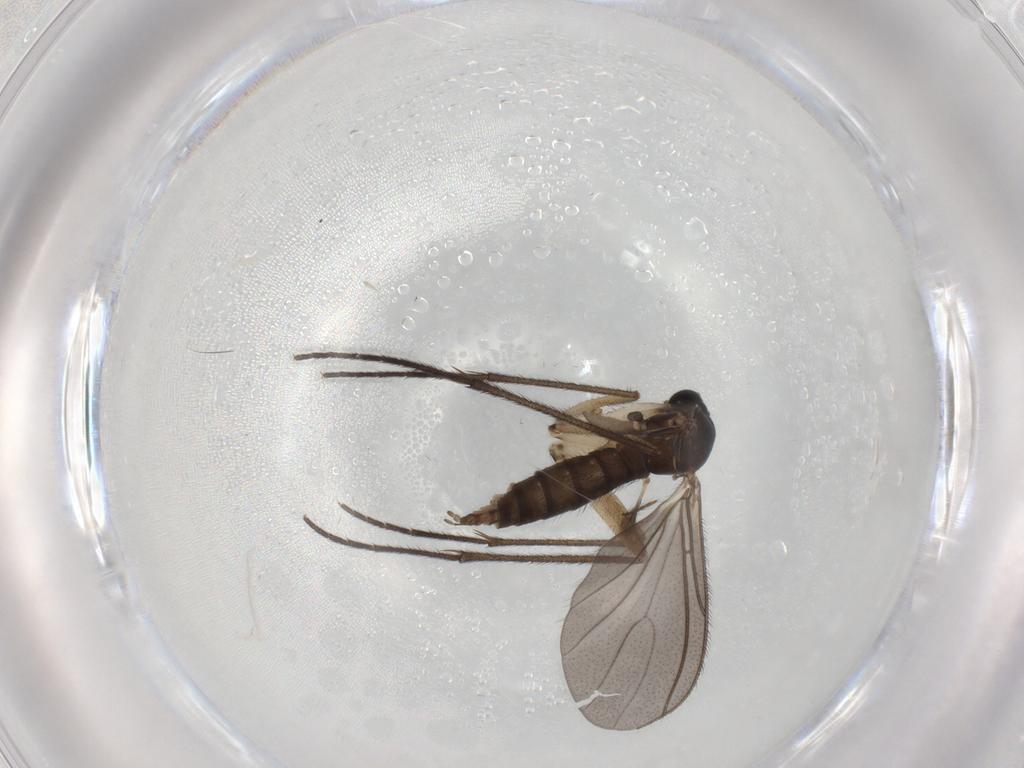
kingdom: Animalia
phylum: Arthropoda
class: Insecta
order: Diptera
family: Sciaridae
